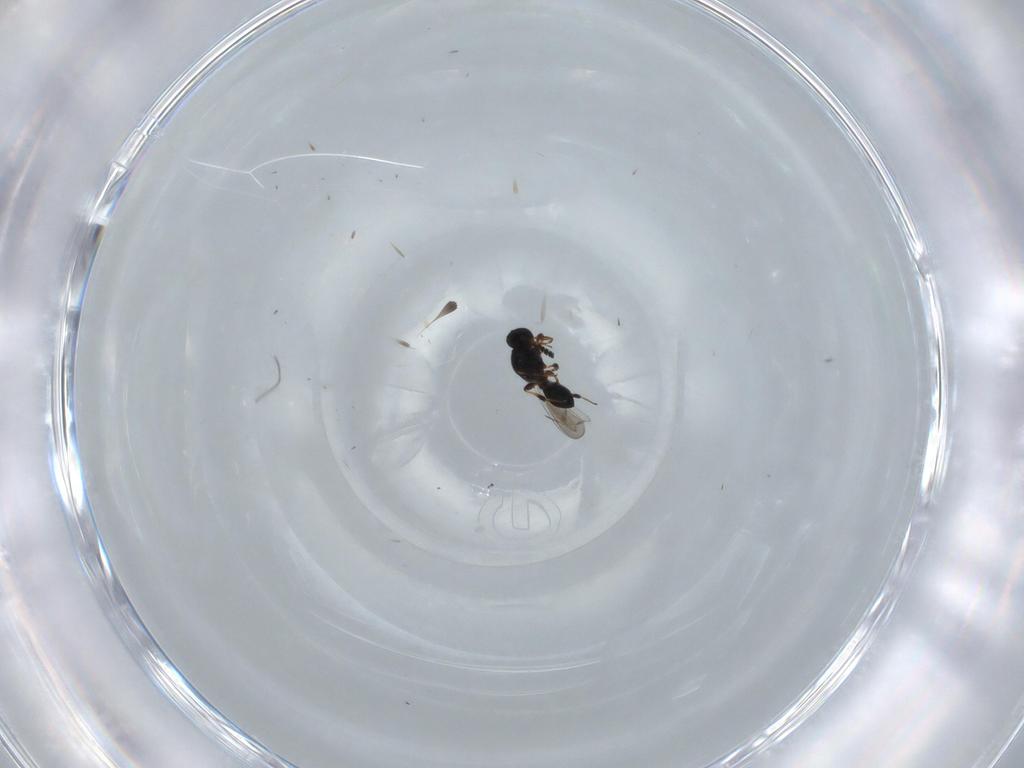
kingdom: Animalia
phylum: Arthropoda
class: Insecta
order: Hymenoptera
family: Platygastridae
